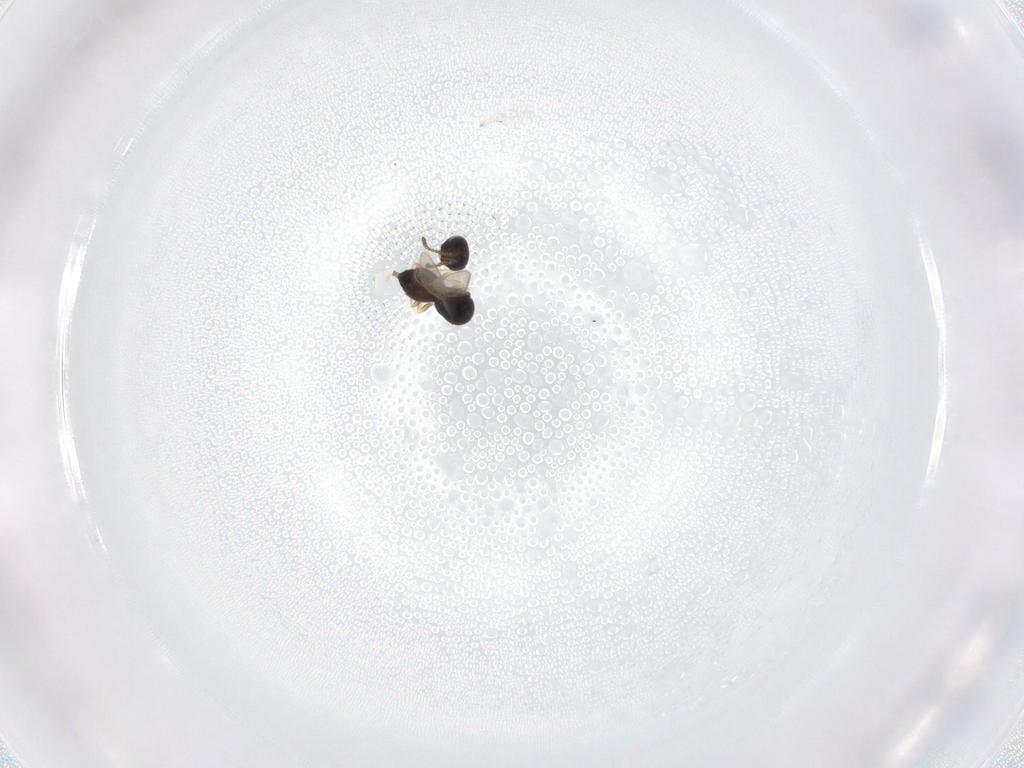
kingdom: Animalia
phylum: Arthropoda
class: Insecta
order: Hymenoptera
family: Scelionidae
